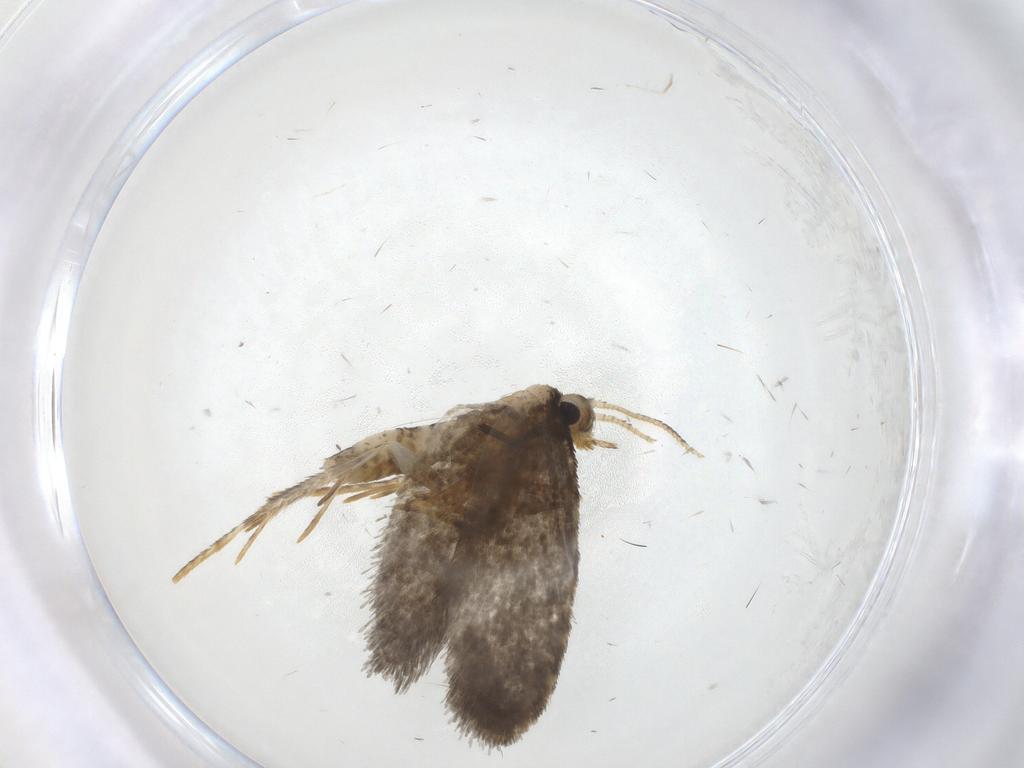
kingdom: Animalia
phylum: Arthropoda
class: Insecta
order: Lepidoptera
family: Psychidae
